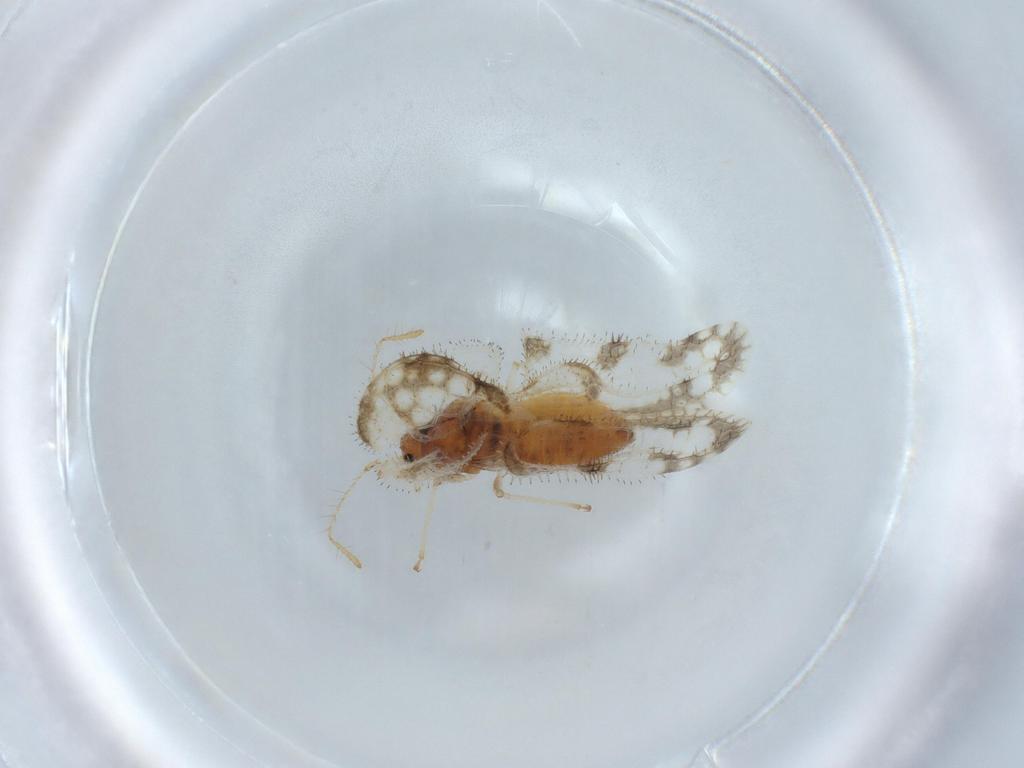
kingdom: Animalia
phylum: Arthropoda
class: Insecta
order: Hemiptera
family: Tingidae
